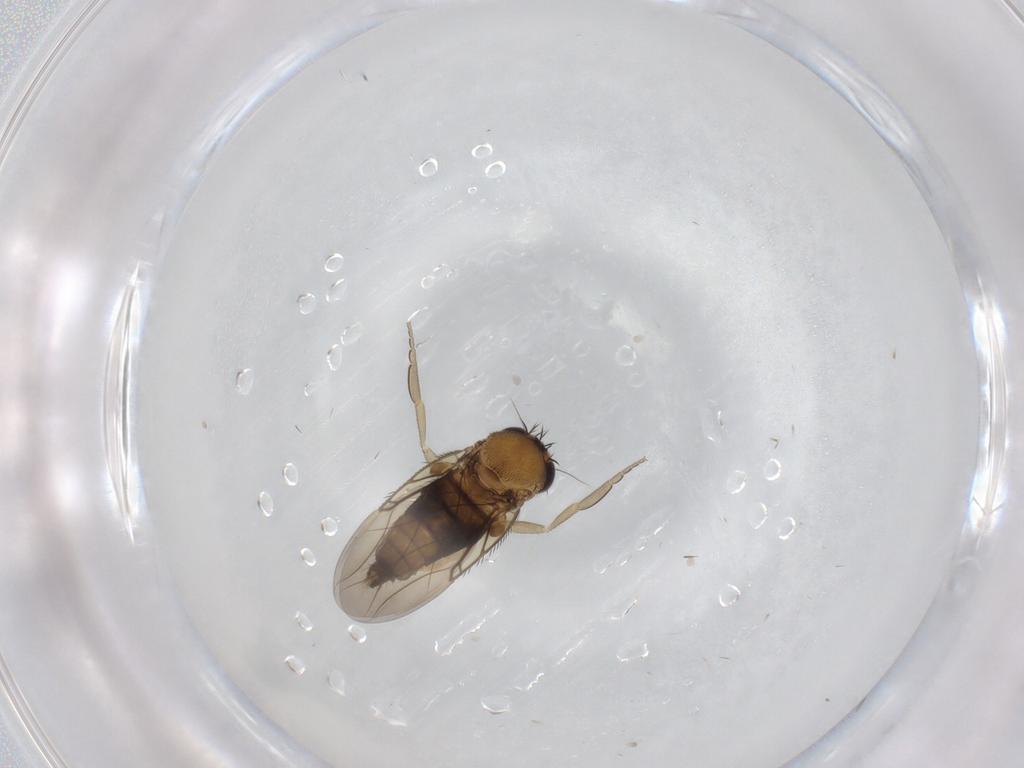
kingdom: Animalia
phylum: Arthropoda
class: Insecta
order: Diptera
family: Phoridae
